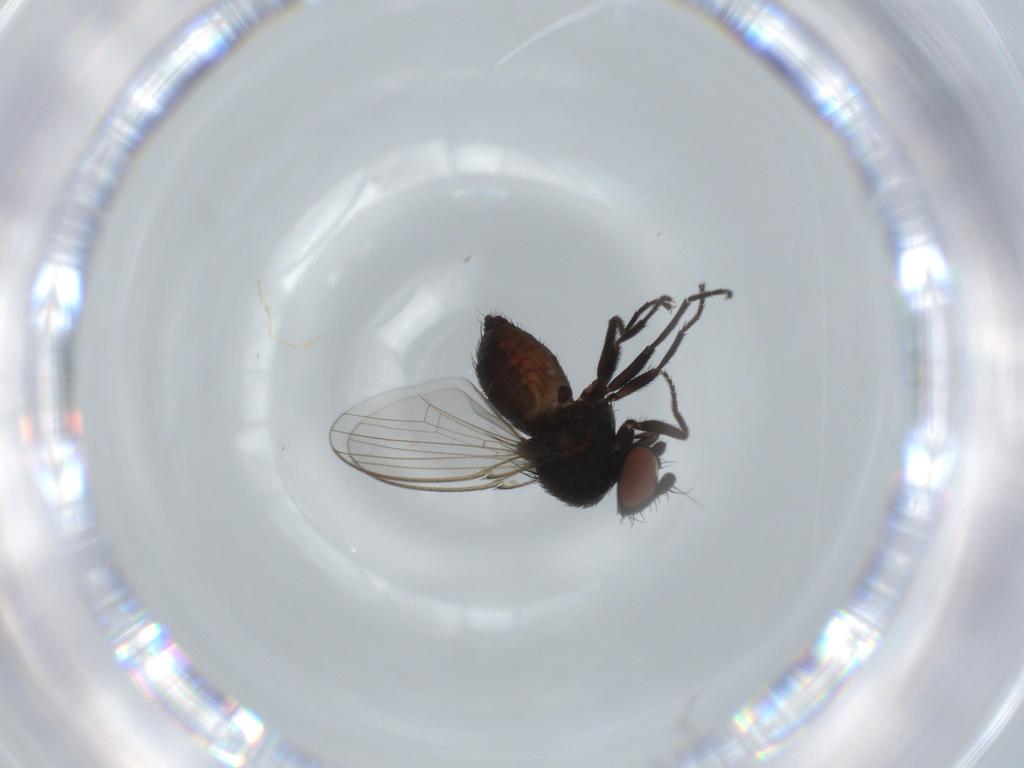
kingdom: Animalia
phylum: Arthropoda
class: Insecta
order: Diptera
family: Milichiidae
